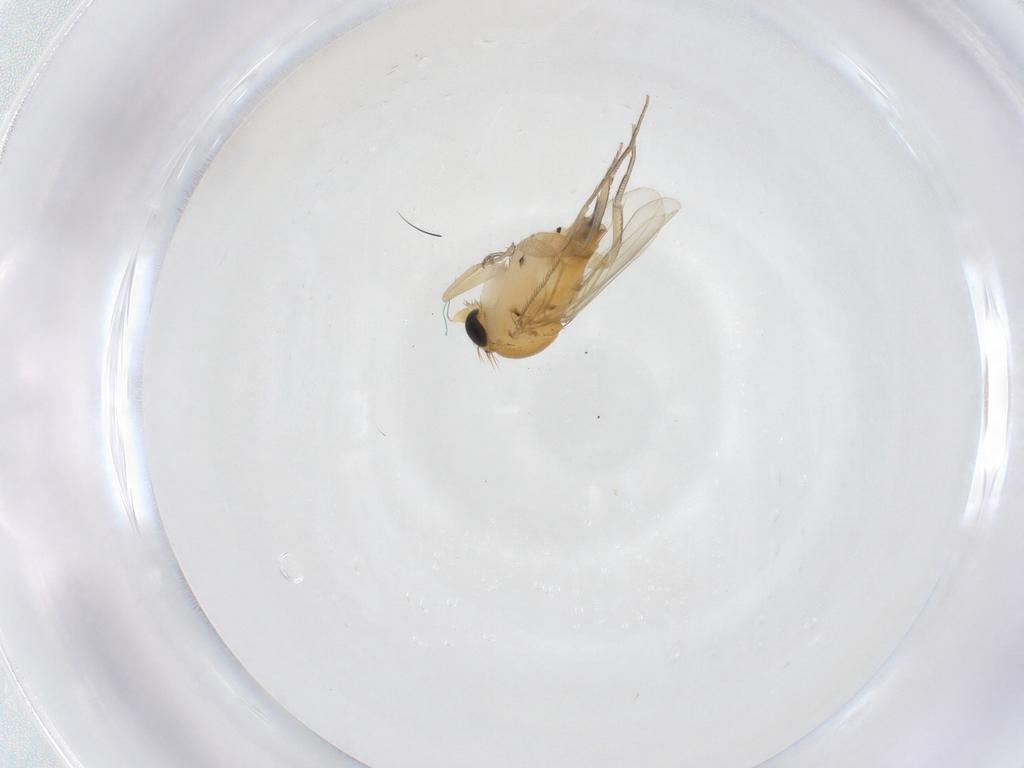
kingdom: Animalia
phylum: Arthropoda
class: Insecta
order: Diptera
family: Phoridae
